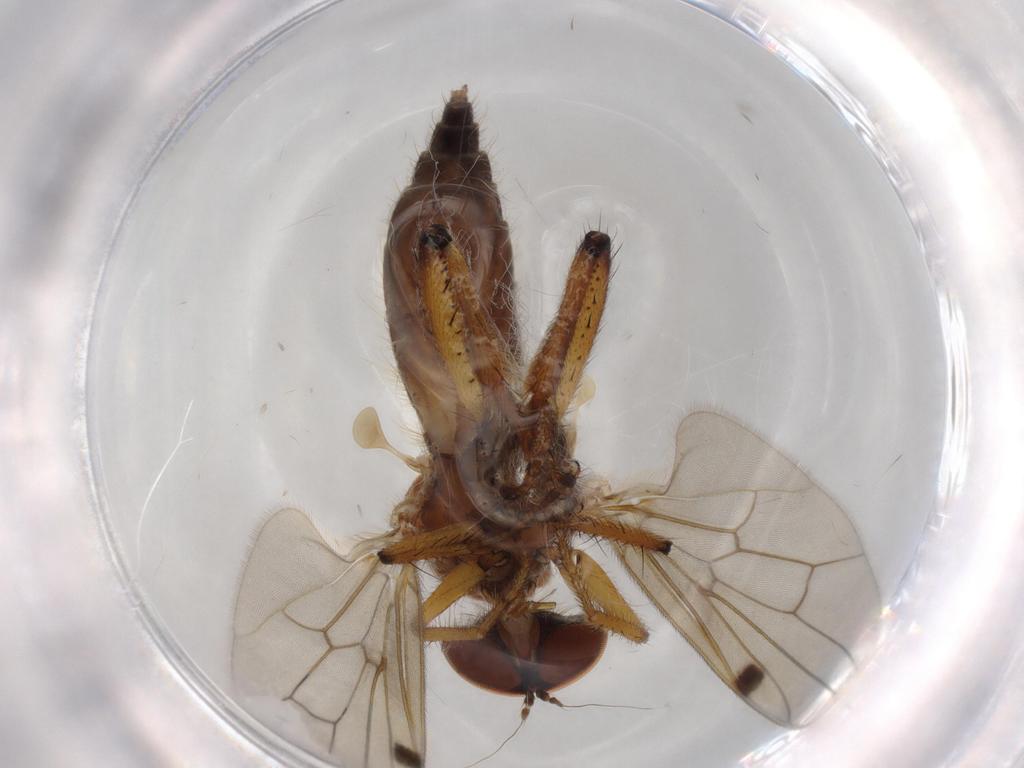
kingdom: Animalia
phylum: Arthropoda
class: Insecta
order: Diptera
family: Hybotidae
